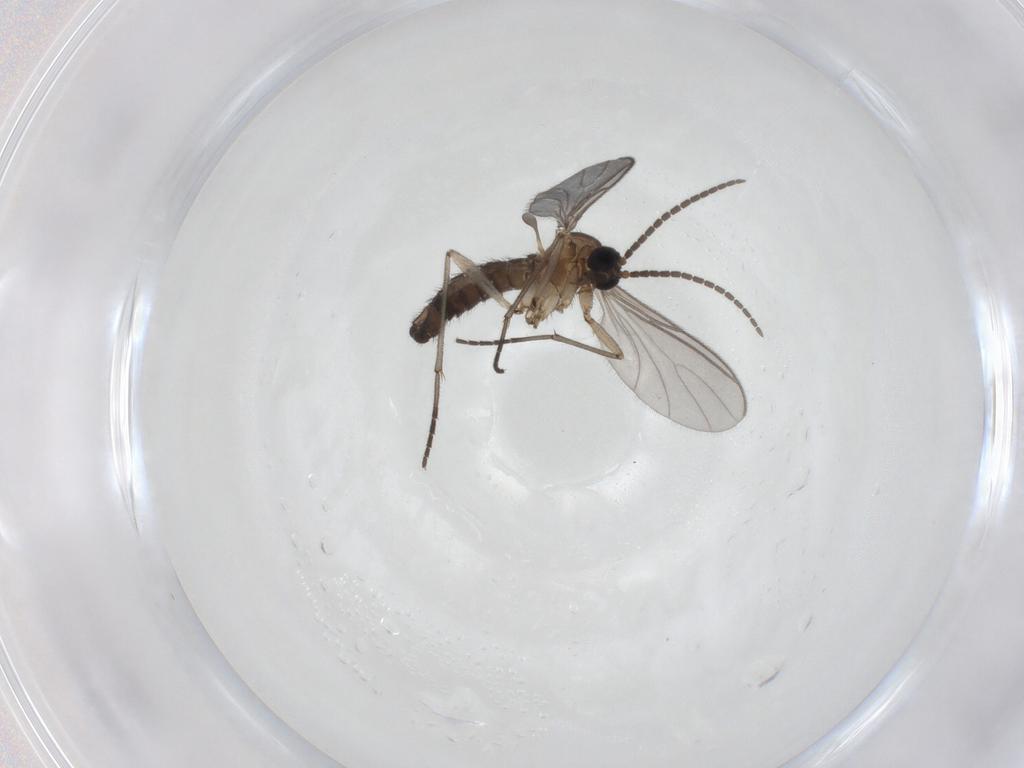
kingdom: Animalia
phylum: Arthropoda
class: Insecta
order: Diptera
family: Sciaridae
